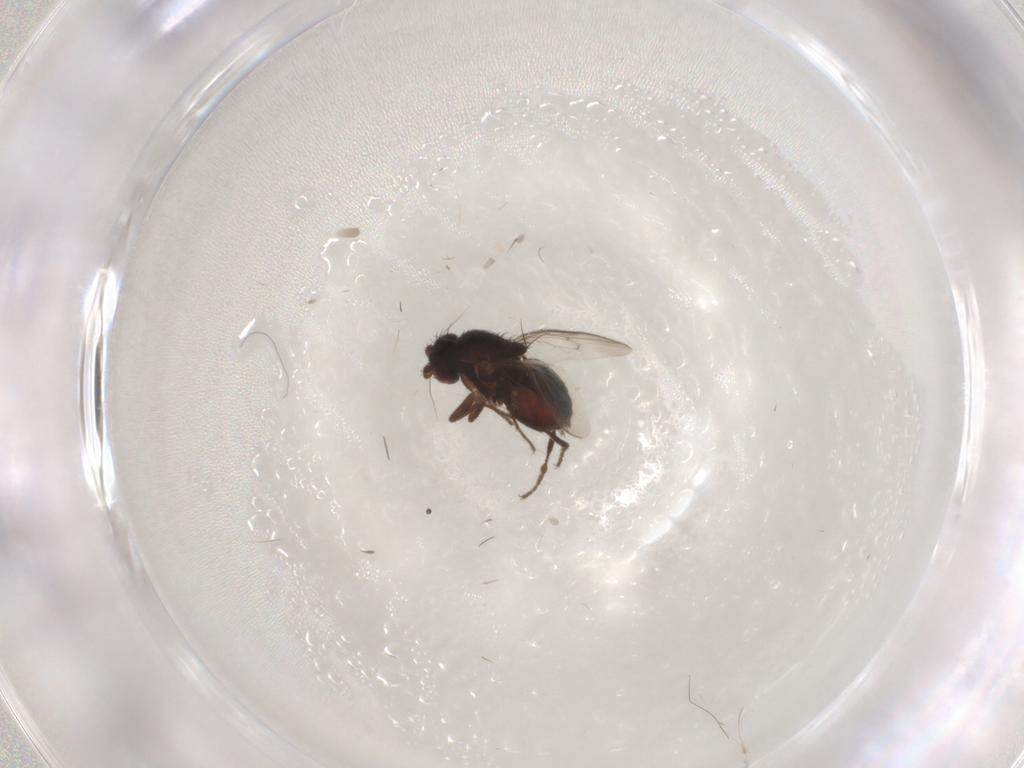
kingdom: Animalia
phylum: Arthropoda
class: Insecta
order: Diptera
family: Sphaeroceridae
